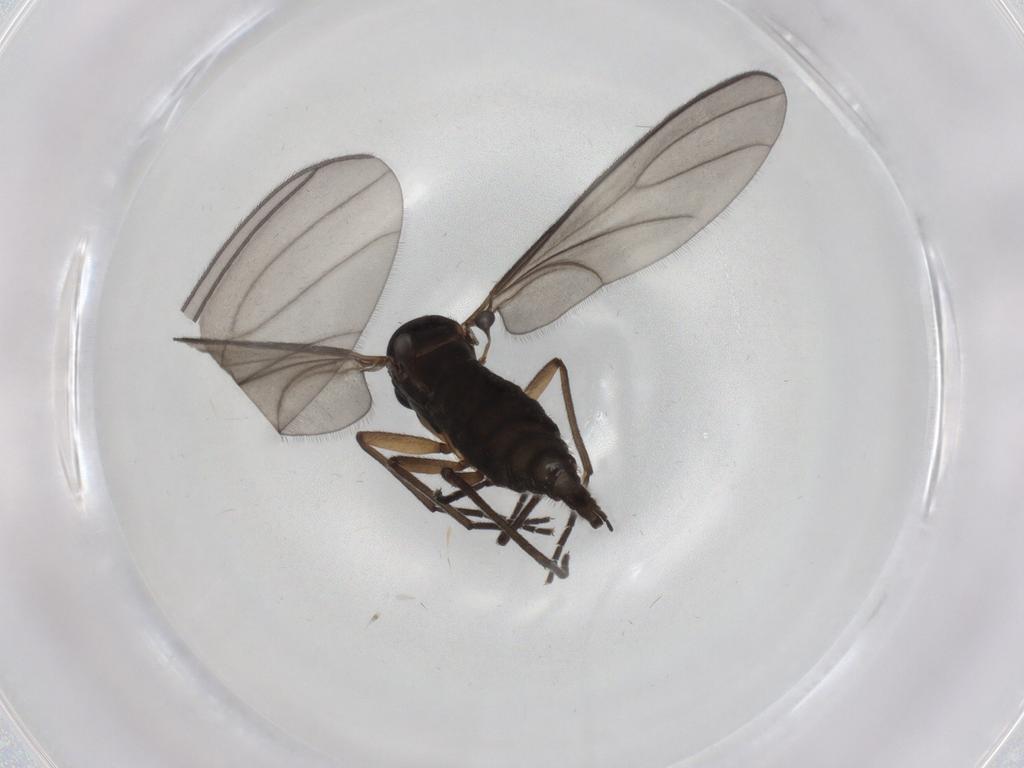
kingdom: Animalia
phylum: Arthropoda
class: Insecta
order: Diptera
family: Sciaridae
